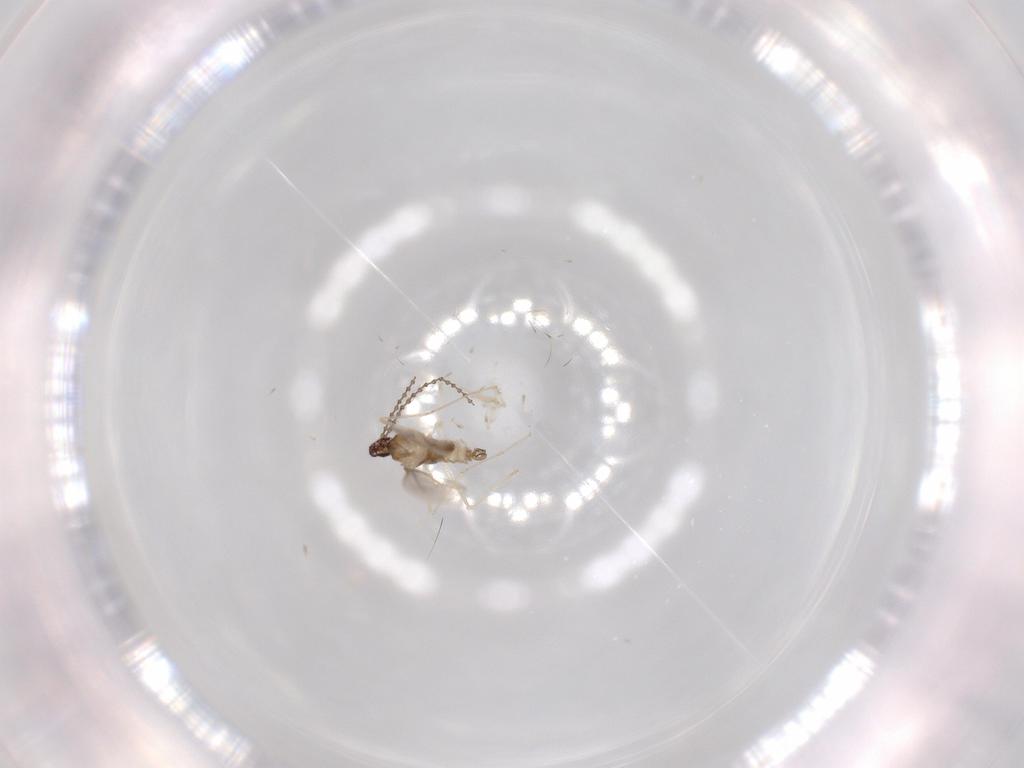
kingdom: Animalia
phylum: Arthropoda
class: Insecta
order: Diptera
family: Cecidomyiidae
